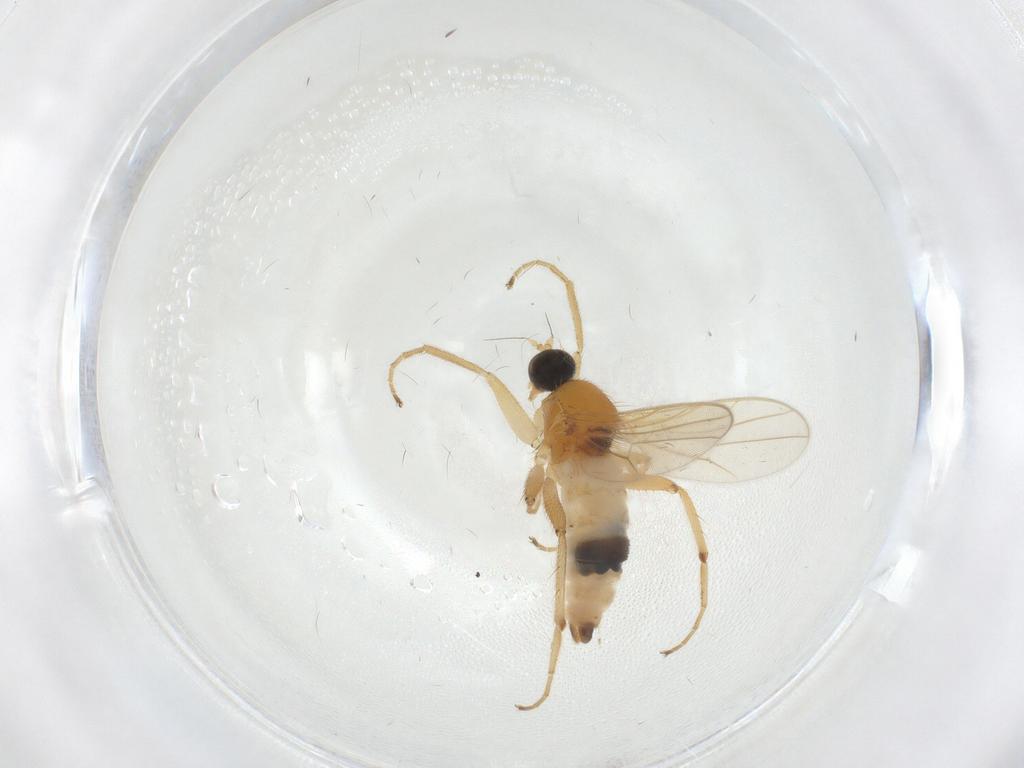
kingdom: Animalia
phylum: Arthropoda
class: Insecta
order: Diptera
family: Hybotidae
